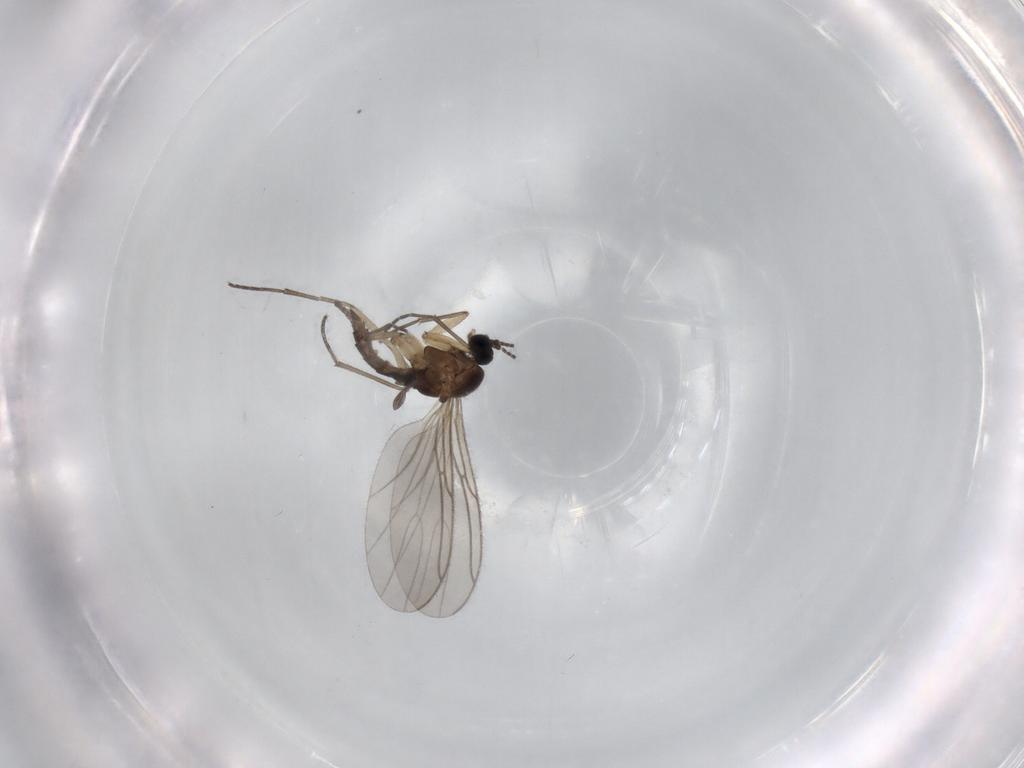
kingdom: Animalia
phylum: Arthropoda
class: Insecta
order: Diptera
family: Sciaridae
